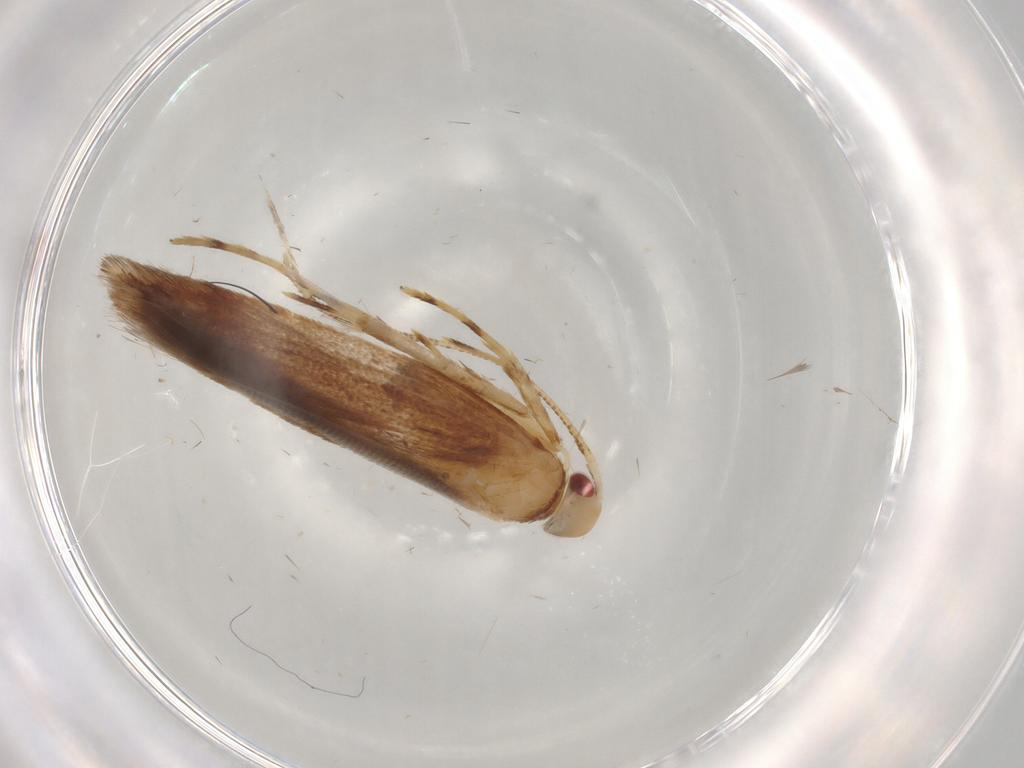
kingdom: Animalia
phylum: Arthropoda
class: Insecta
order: Lepidoptera
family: Cosmopterigidae
